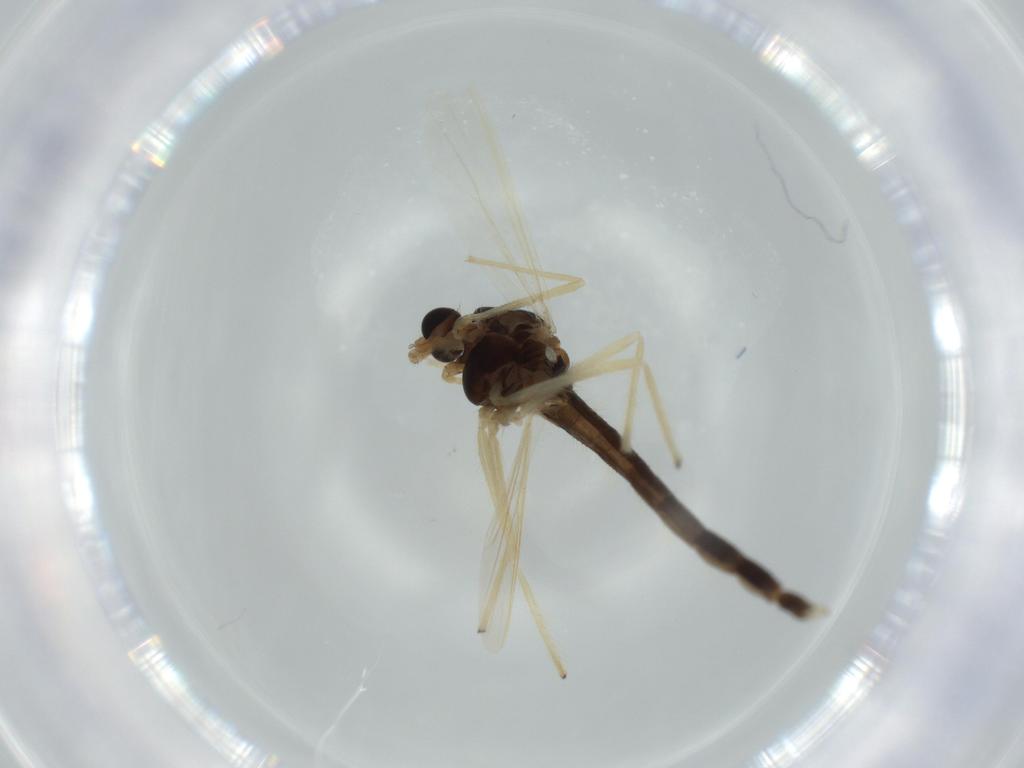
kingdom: Animalia
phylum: Arthropoda
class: Insecta
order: Diptera
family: Chironomidae
